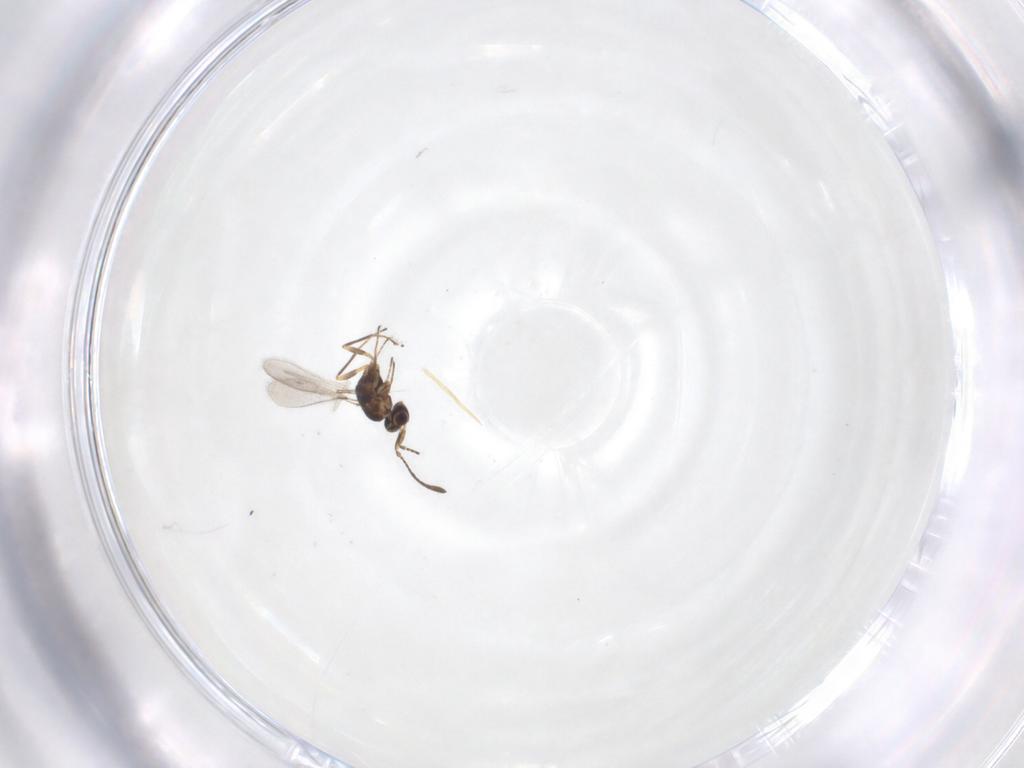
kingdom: Animalia
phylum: Arthropoda
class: Insecta
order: Hymenoptera
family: Mymaridae
